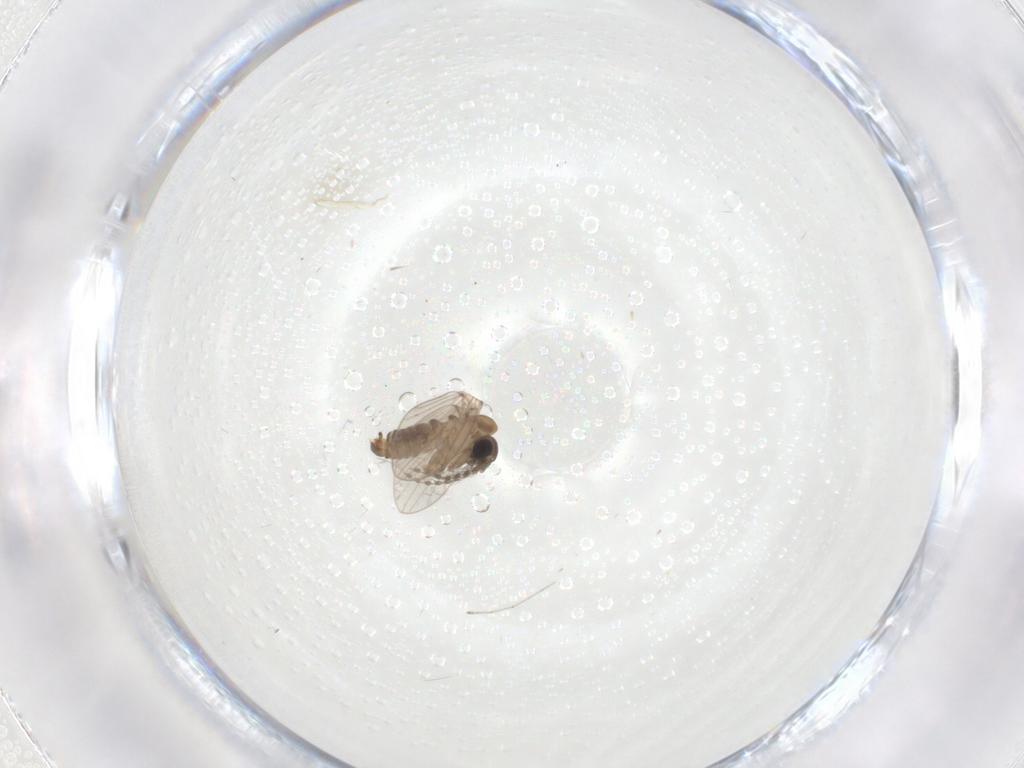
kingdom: Animalia
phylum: Arthropoda
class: Insecta
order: Diptera
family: Cecidomyiidae
